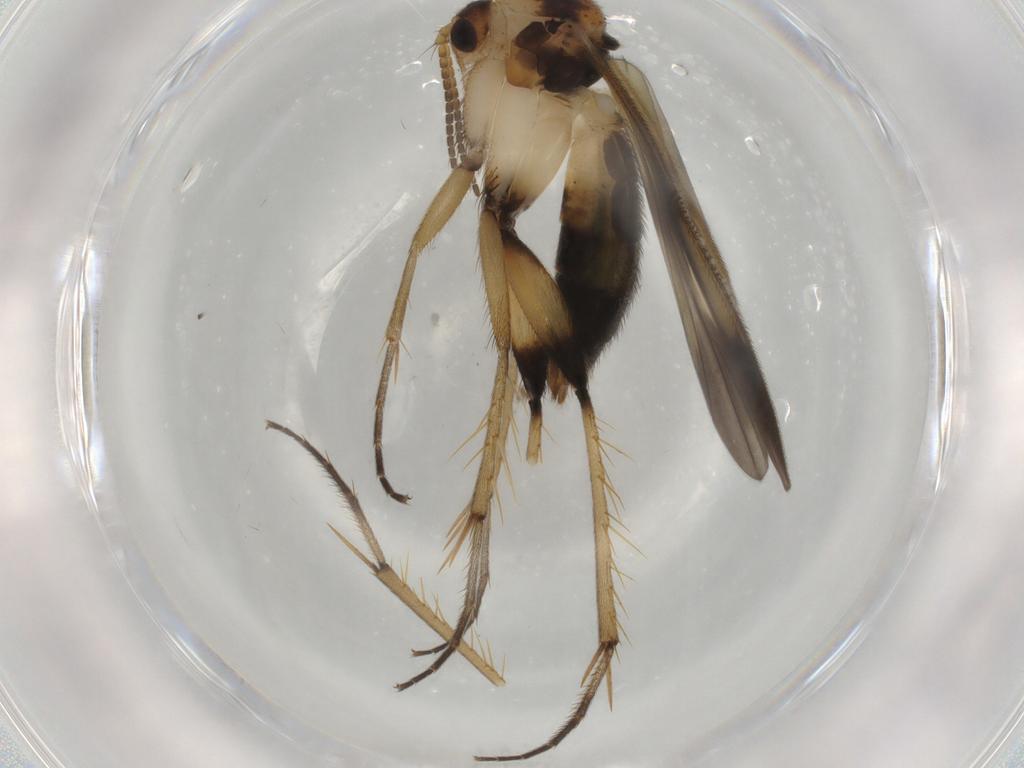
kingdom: Animalia
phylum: Arthropoda
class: Insecta
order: Diptera
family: Mycetophilidae
